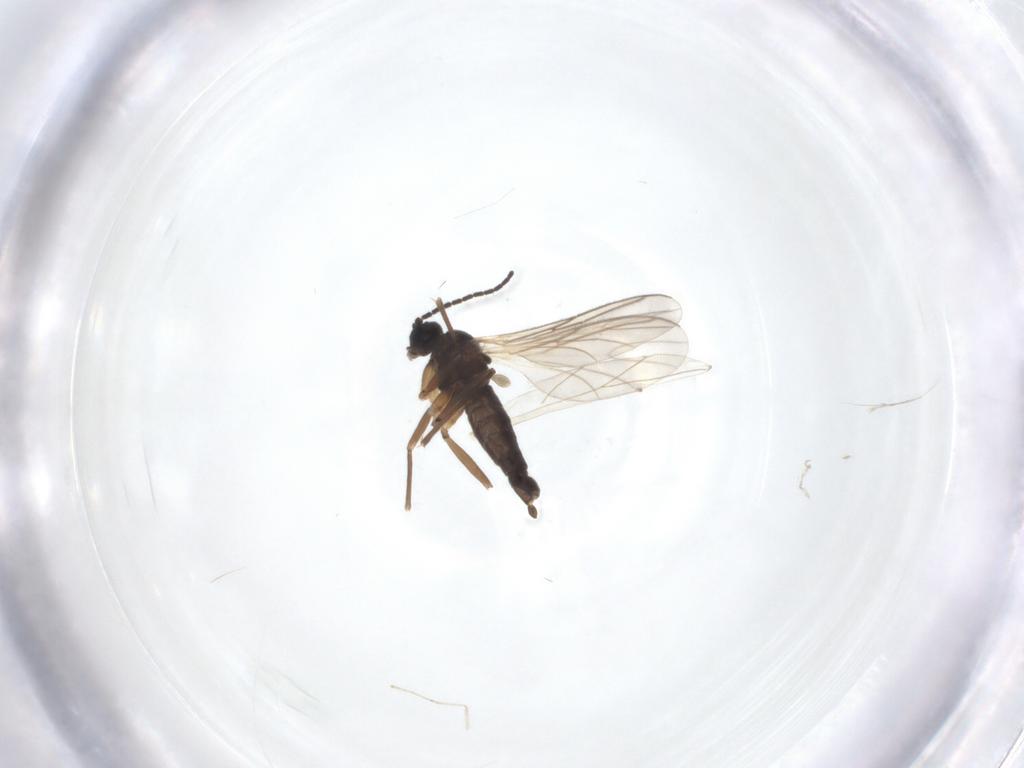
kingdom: Animalia
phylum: Arthropoda
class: Insecta
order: Diptera
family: Sciaridae
